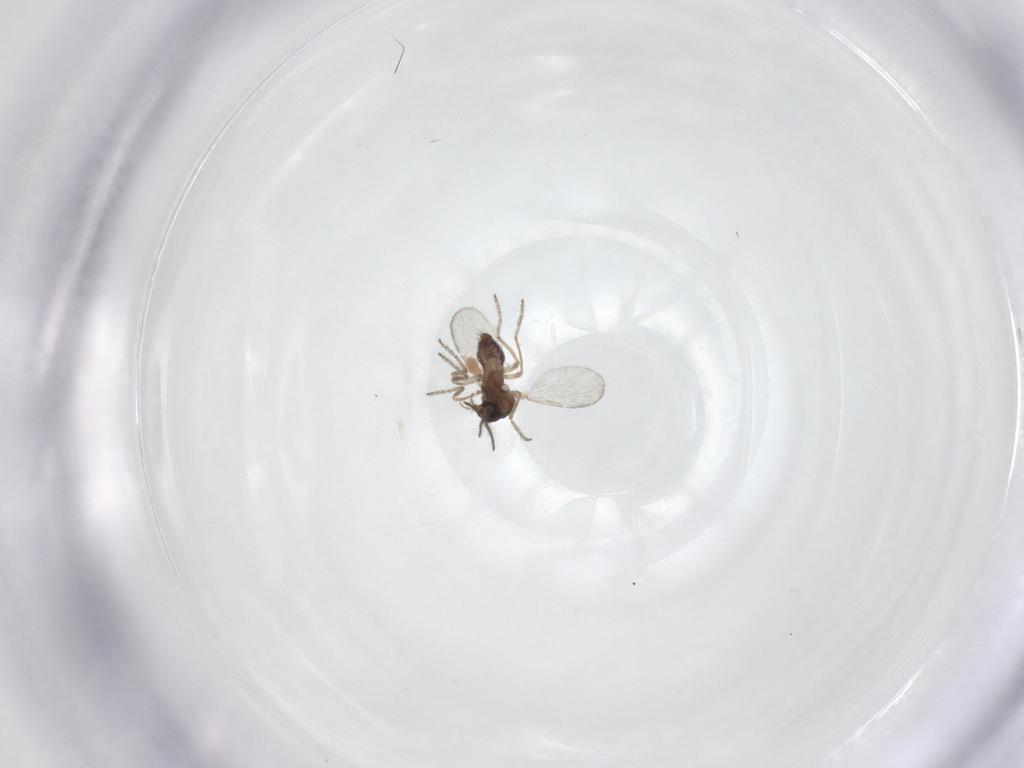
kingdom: Animalia
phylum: Arthropoda
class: Insecta
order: Diptera
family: Ceratopogonidae
